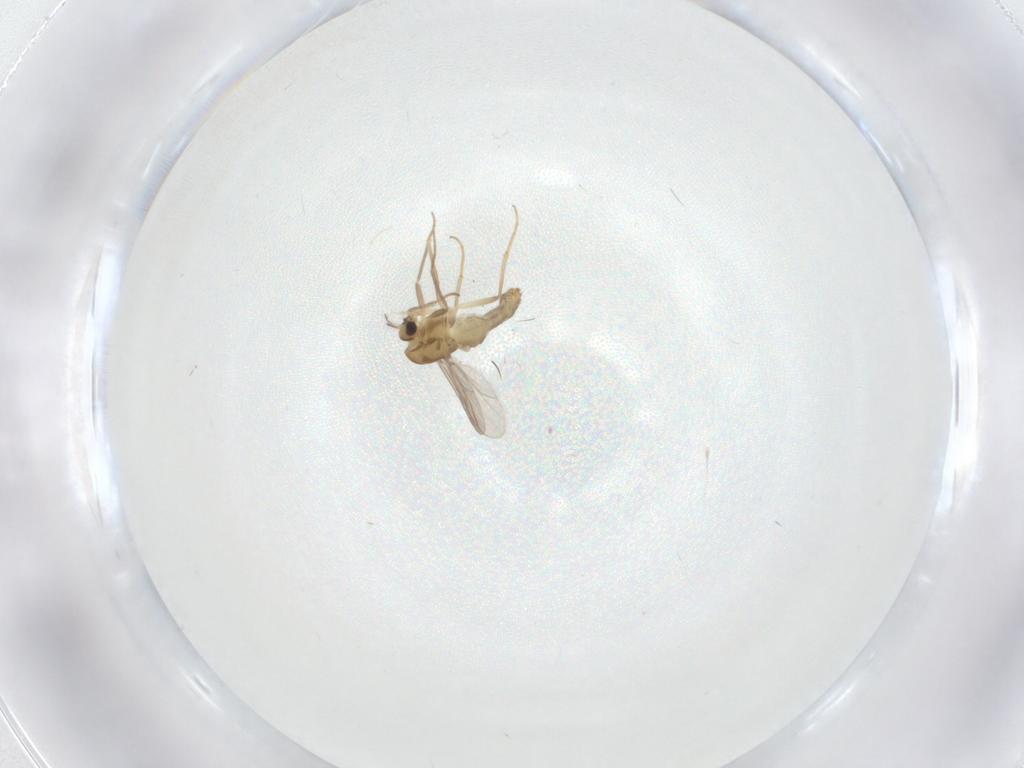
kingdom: Animalia
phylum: Arthropoda
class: Insecta
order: Diptera
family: Chironomidae
